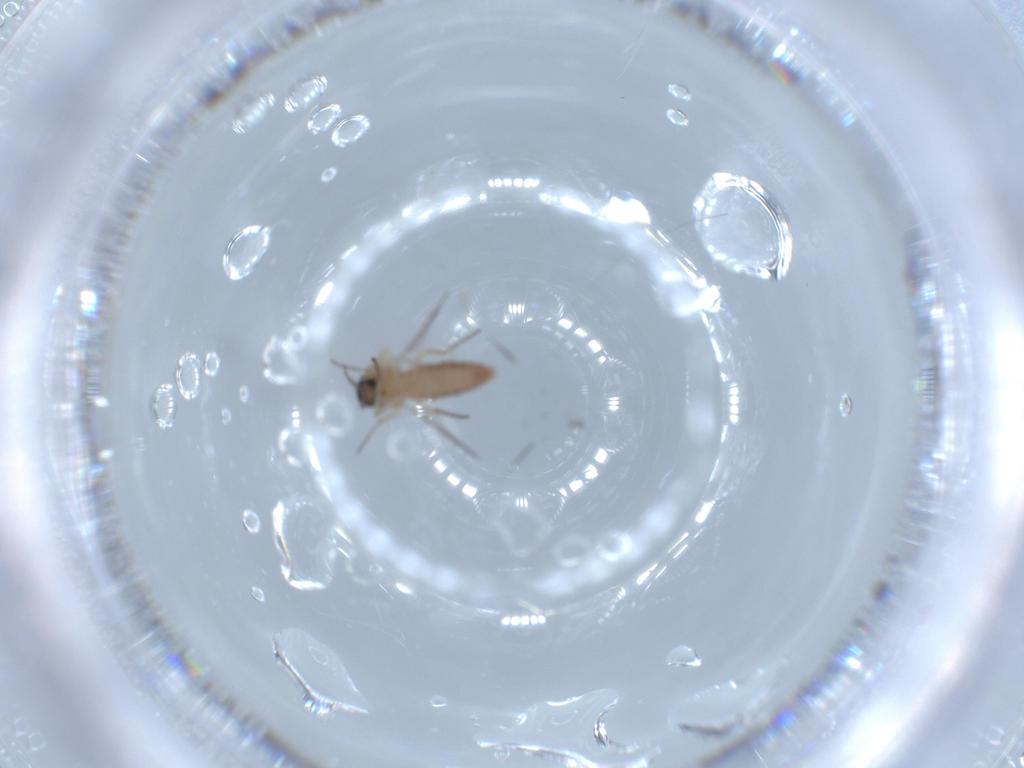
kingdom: Animalia
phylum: Arthropoda
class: Insecta
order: Diptera
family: Ceratopogonidae
